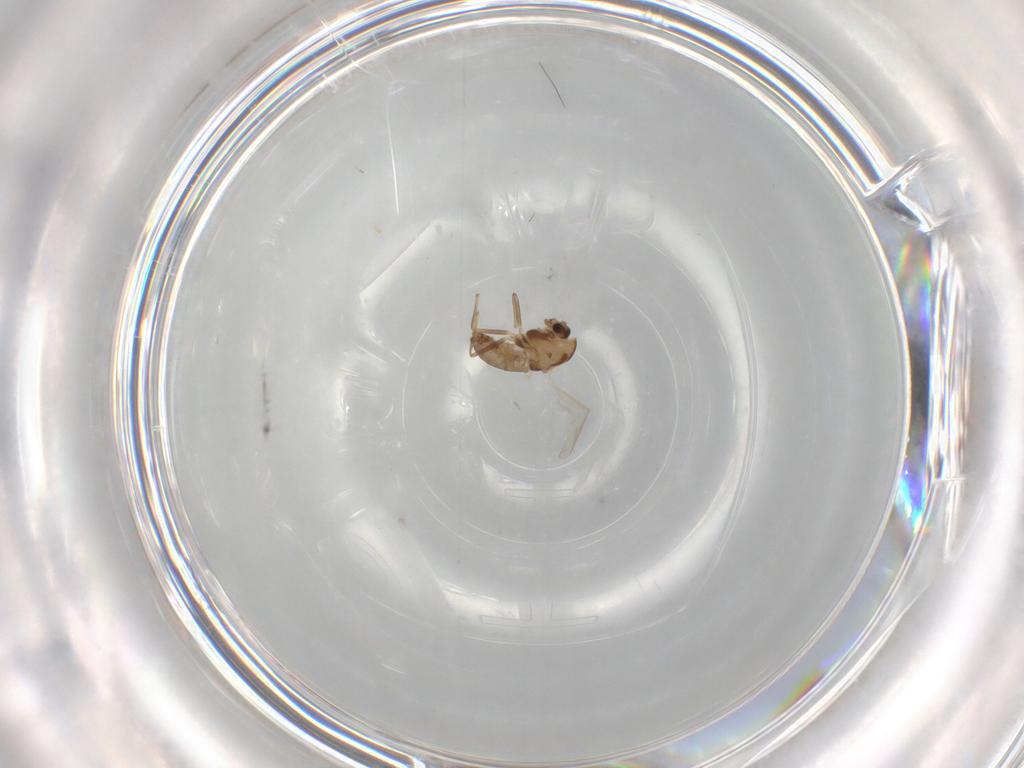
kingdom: Animalia
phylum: Arthropoda
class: Insecta
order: Diptera
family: Chironomidae
